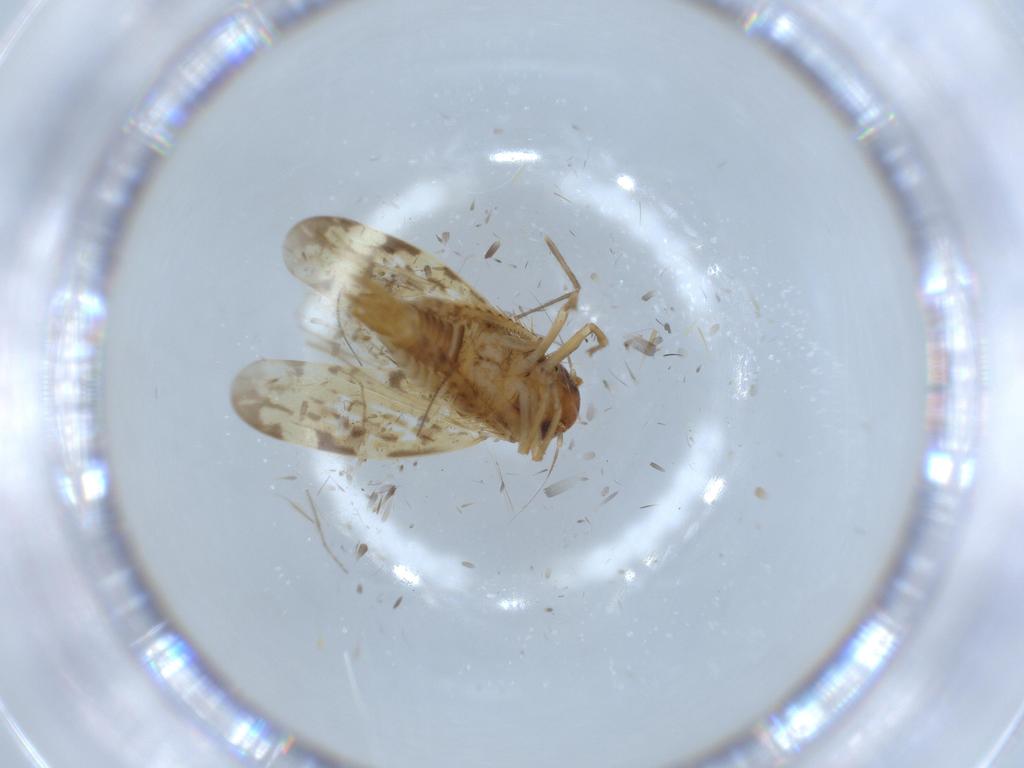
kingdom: Animalia
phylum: Arthropoda
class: Insecta
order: Hemiptera
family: Cicadellidae
